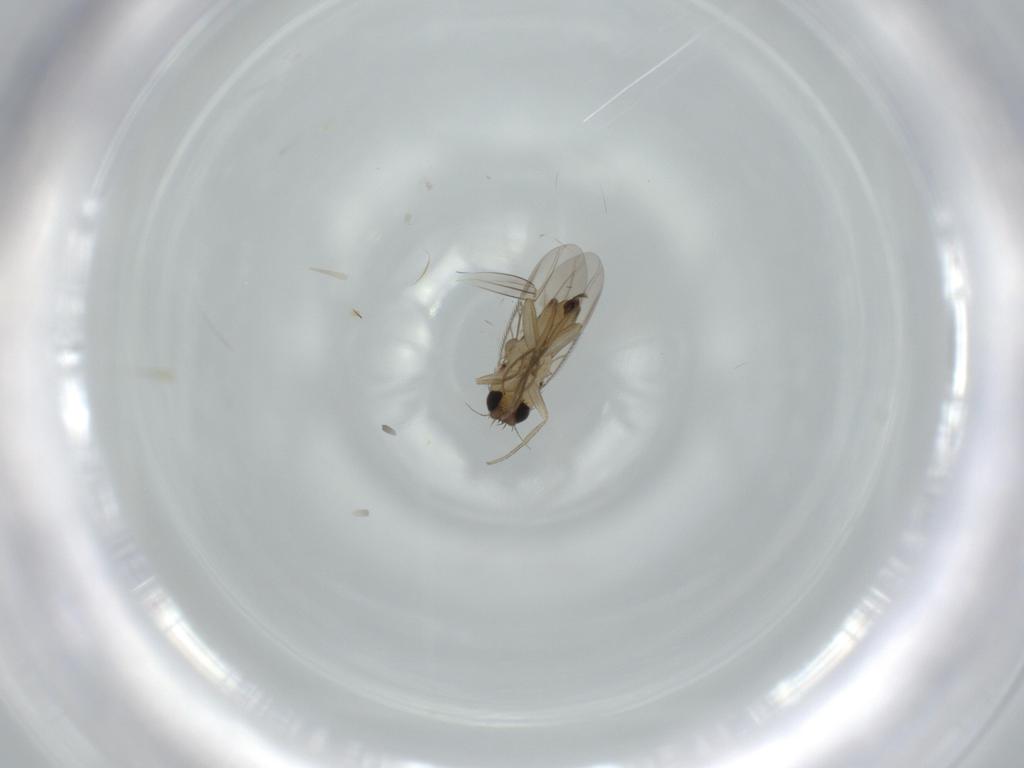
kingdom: Animalia
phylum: Arthropoda
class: Insecta
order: Diptera
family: Phoridae
